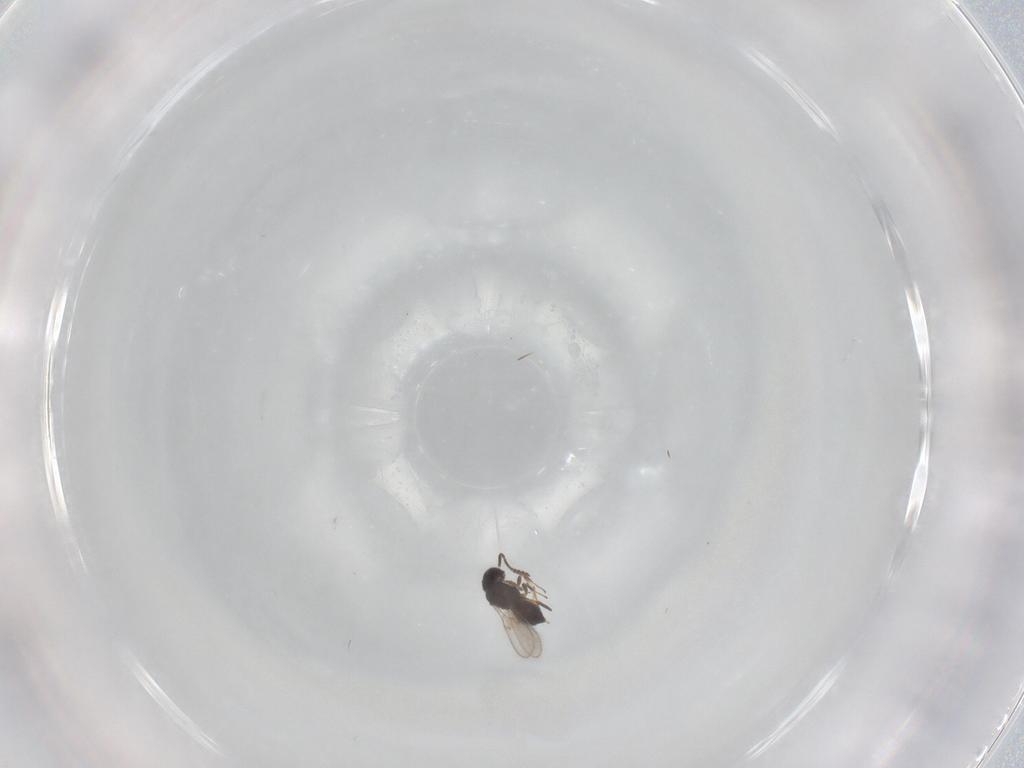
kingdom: Animalia
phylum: Arthropoda
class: Insecta
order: Hymenoptera
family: Scelionidae
